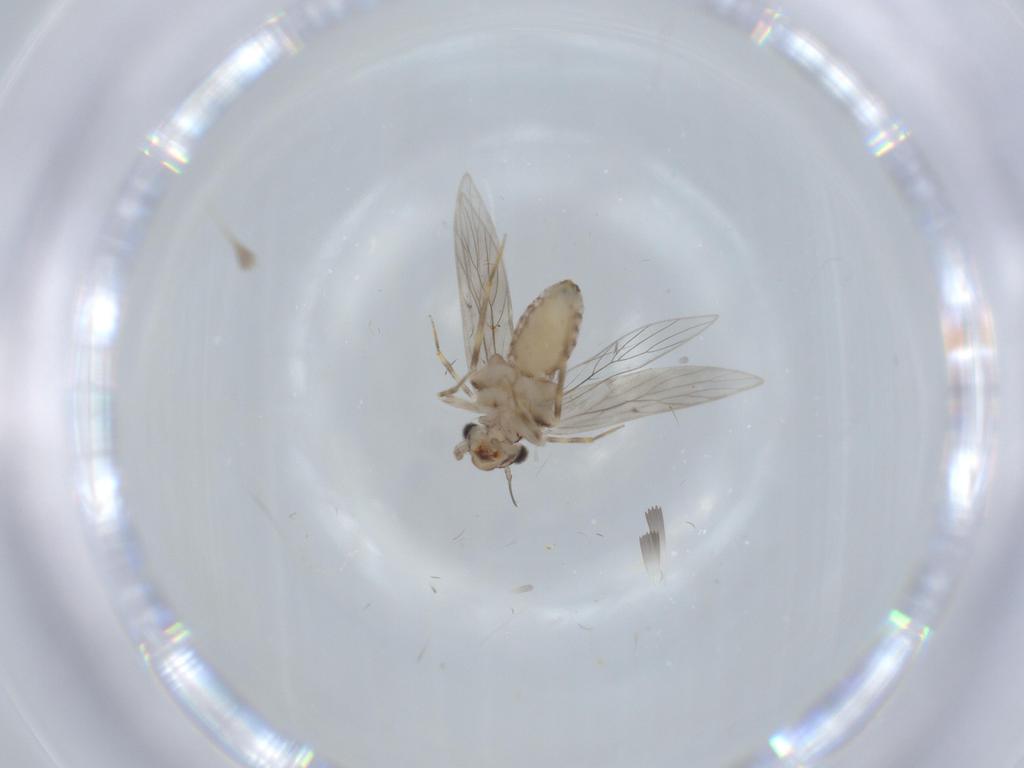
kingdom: Animalia
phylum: Arthropoda
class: Insecta
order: Psocodea
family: Lepidopsocidae
